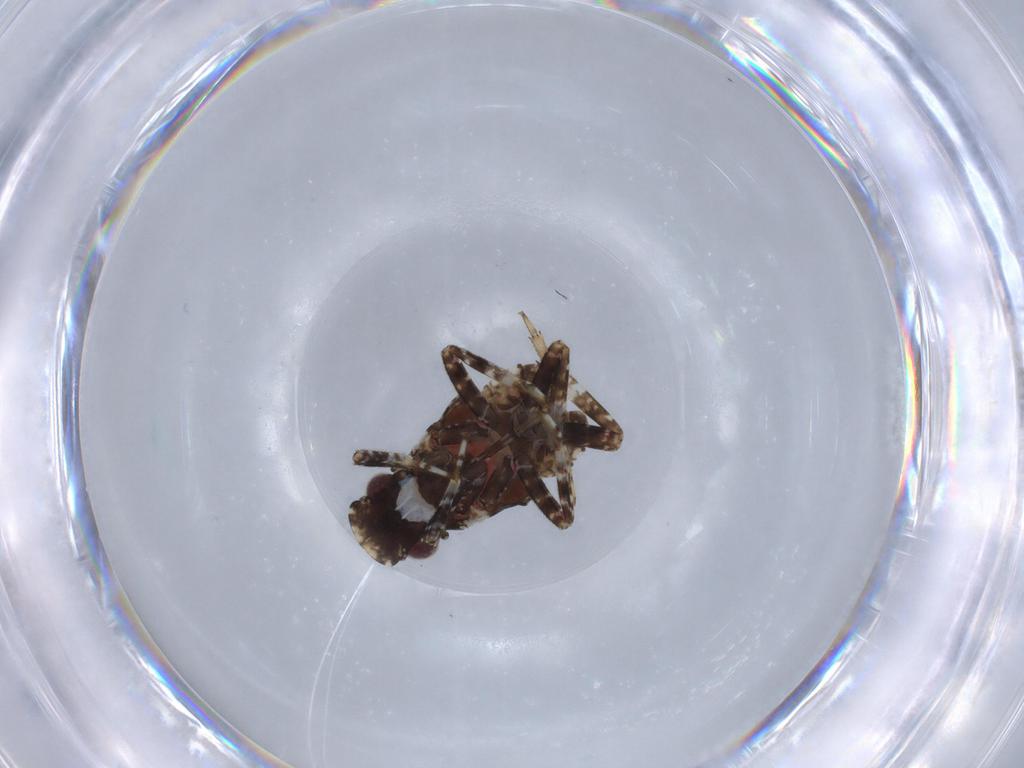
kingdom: Animalia
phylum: Arthropoda
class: Insecta
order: Hemiptera
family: Fulgoridae
